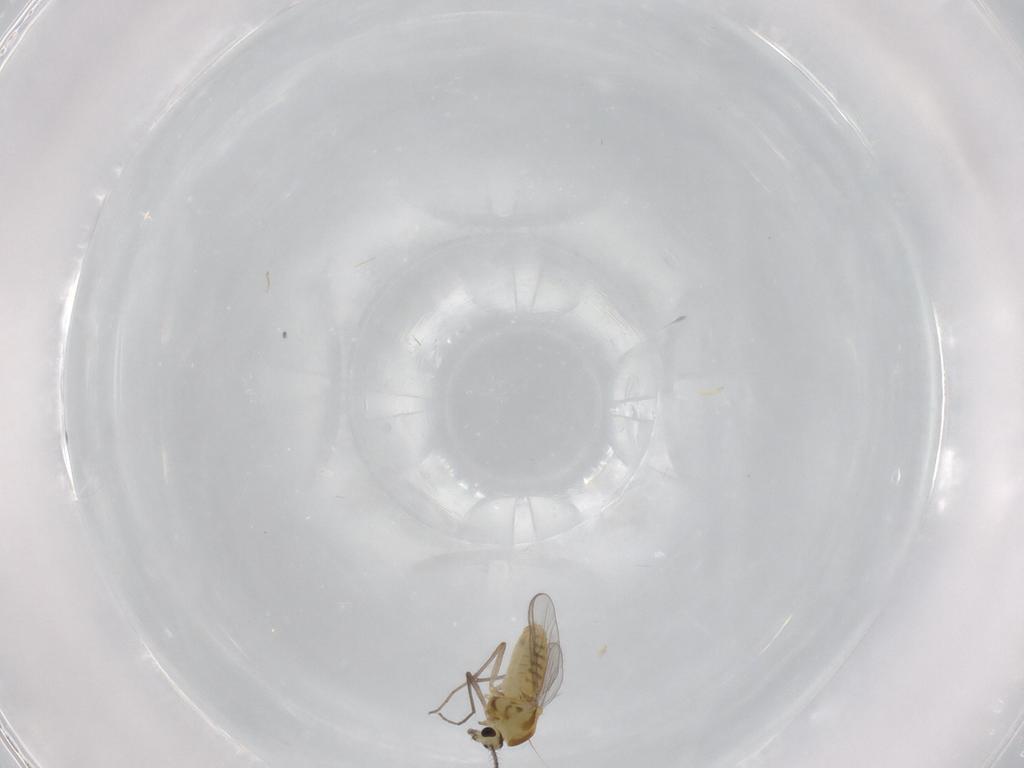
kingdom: Animalia
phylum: Arthropoda
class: Insecta
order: Diptera
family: Chironomidae
